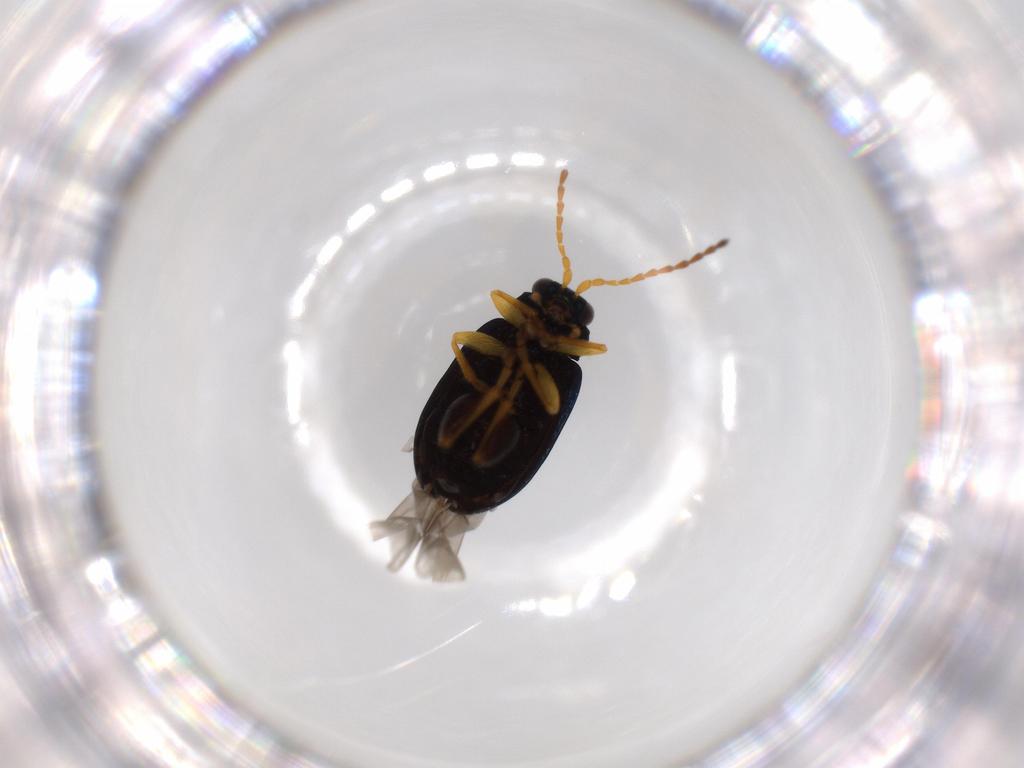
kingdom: Animalia
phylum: Arthropoda
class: Insecta
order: Coleoptera
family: Chrysomelidae
